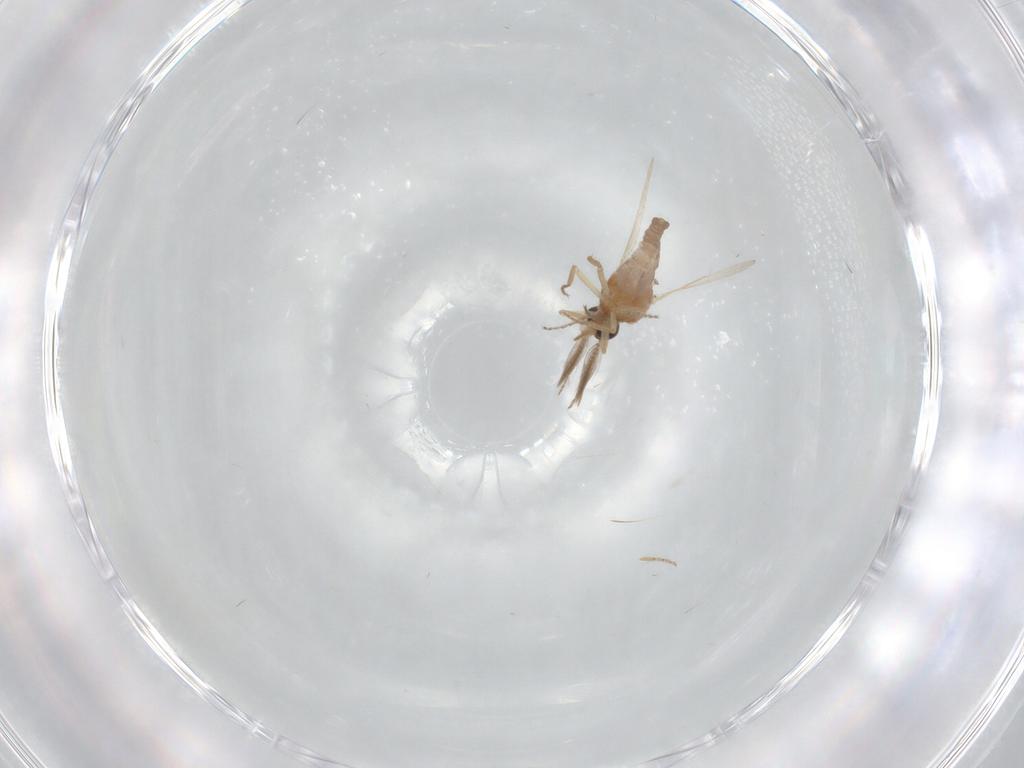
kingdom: Animalia
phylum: Arthropoda
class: Insecta
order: Diptera
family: Ceratopogonidae
